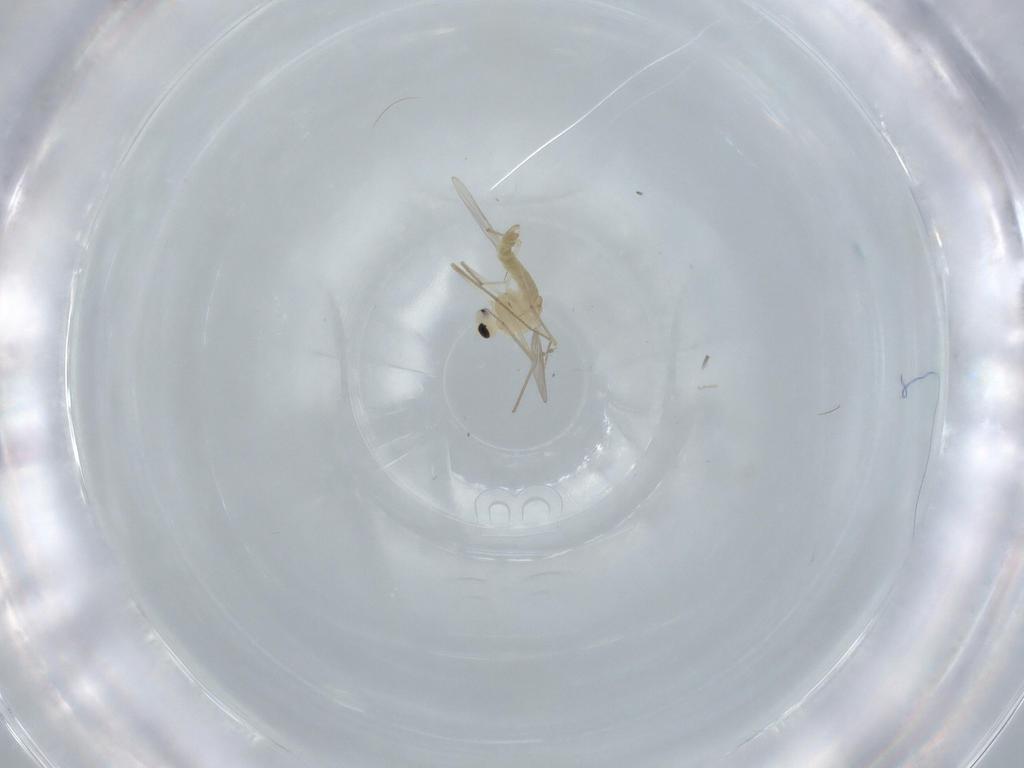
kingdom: Animalia
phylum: Arthropoda
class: Insecta
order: Diptera
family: Chironomidae
